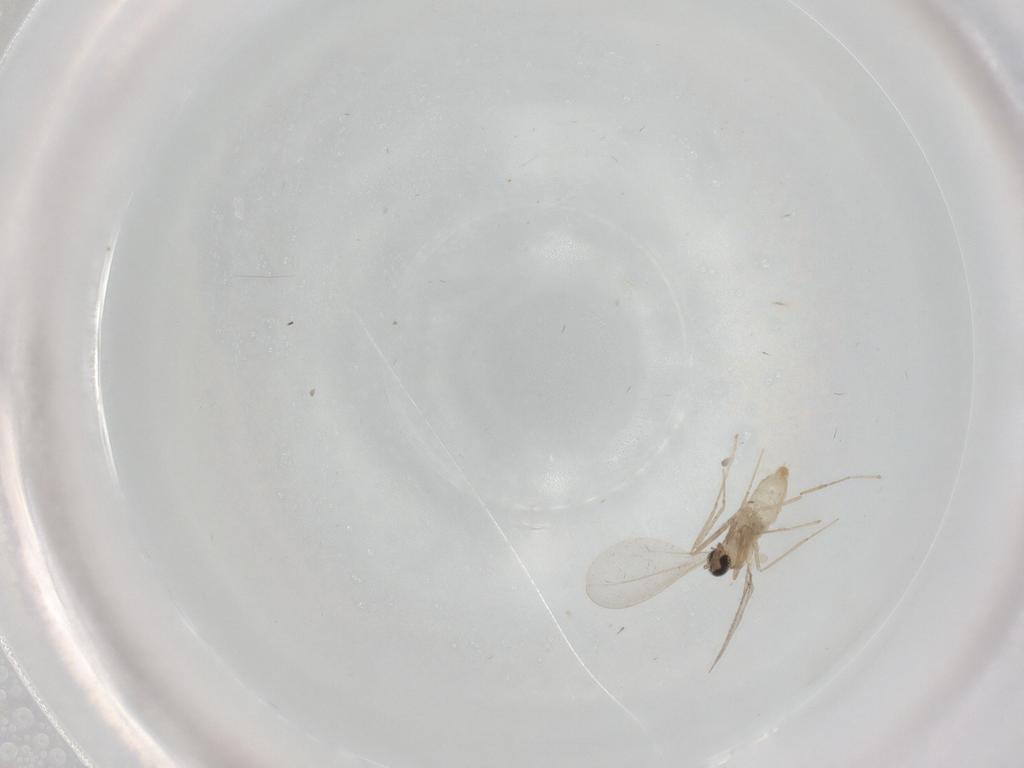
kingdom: Animalia
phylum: Arthropoda
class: Insecta
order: Diptera
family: Cecidomyiidae
